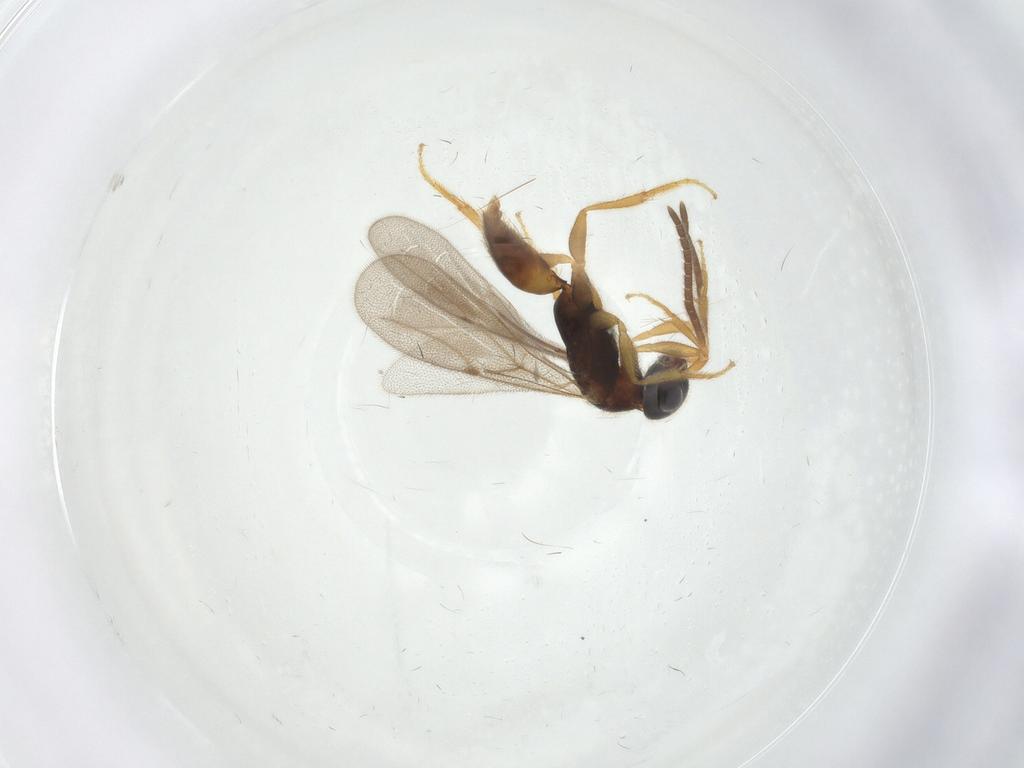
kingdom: Animalia
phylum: Arthropoda
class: Insecta
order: Hymenoptera
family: Bethylidae
